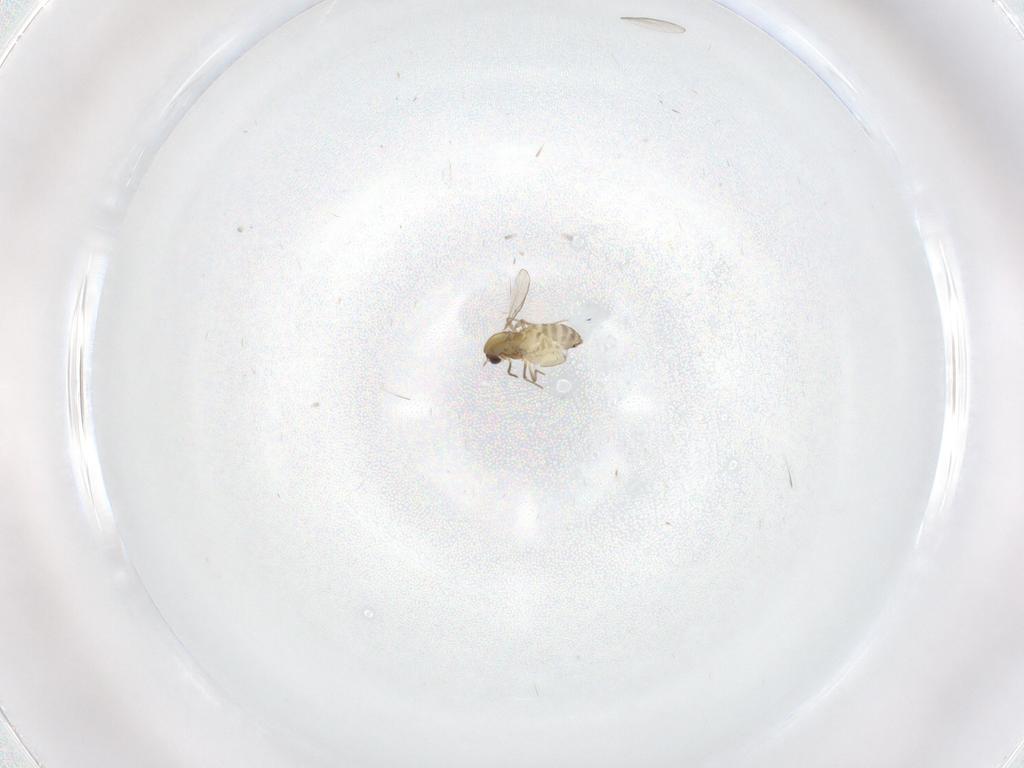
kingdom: Animalia
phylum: Arthropoda
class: Insecta
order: Diptera
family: Chironomidae
